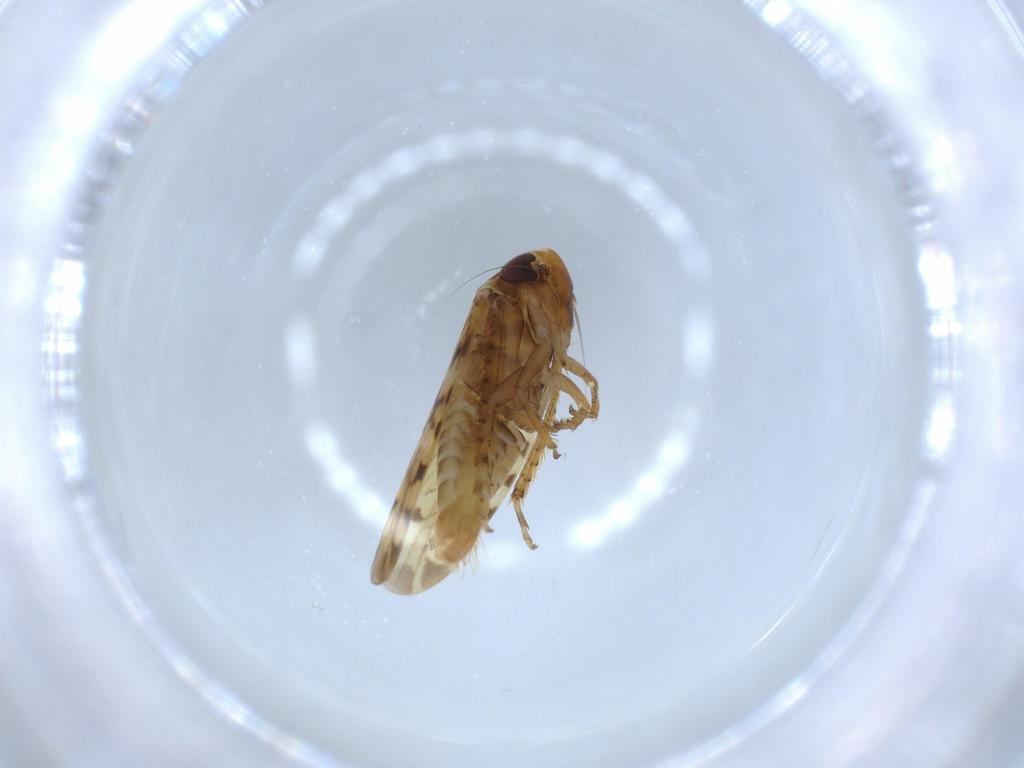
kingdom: Animalia
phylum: Arthropoda
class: Insecta
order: Hemiptera
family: Cicadellidae
